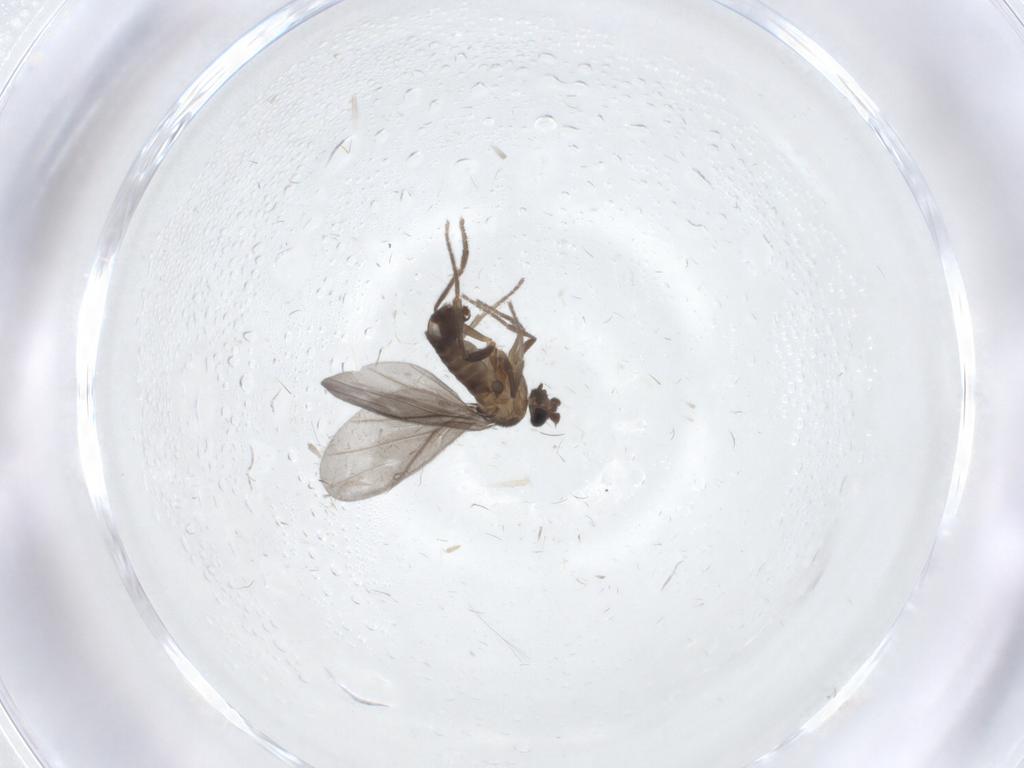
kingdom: Animalia
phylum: Arthropoda
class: Insecta
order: Diptera
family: Phoridae
